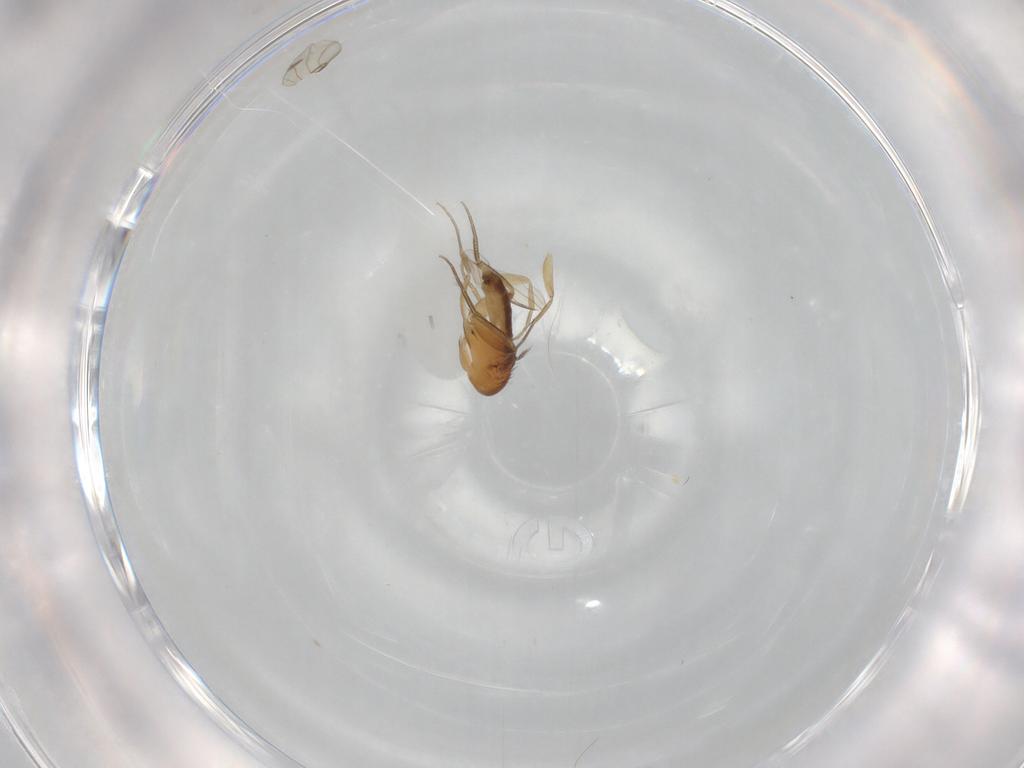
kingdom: Animalia
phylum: Arthropoda
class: Insecta
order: Diptera
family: Phoridae
